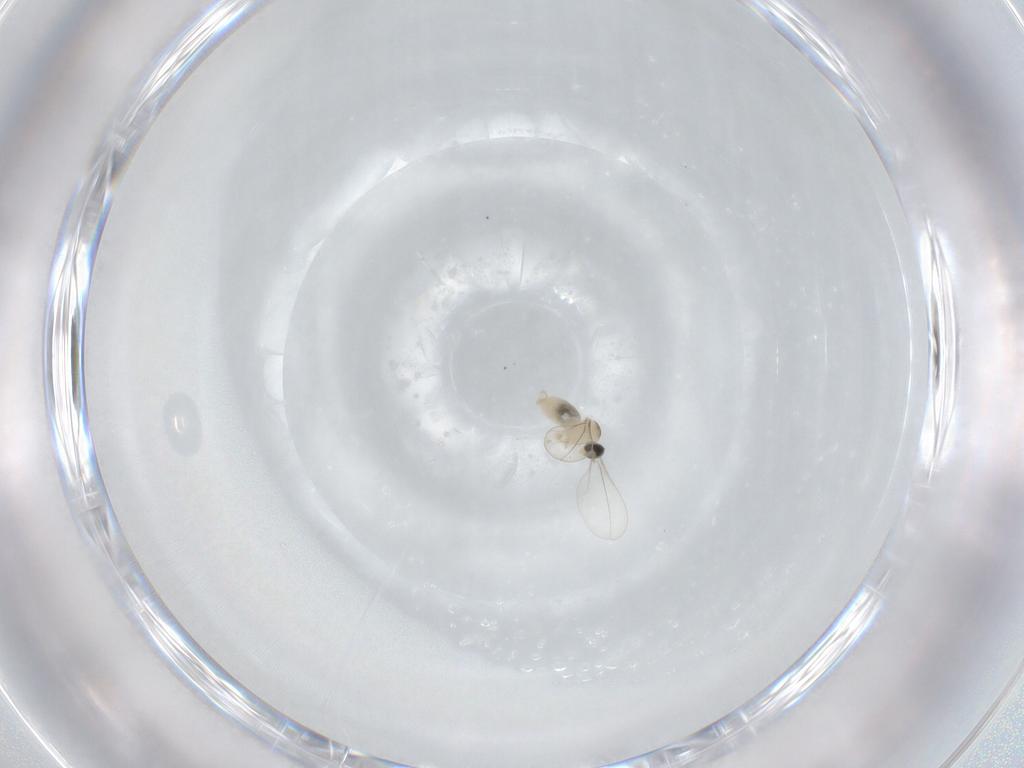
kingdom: Animalia
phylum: Arthropoda
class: Insecta
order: Diptera
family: Cecidomyiidae
